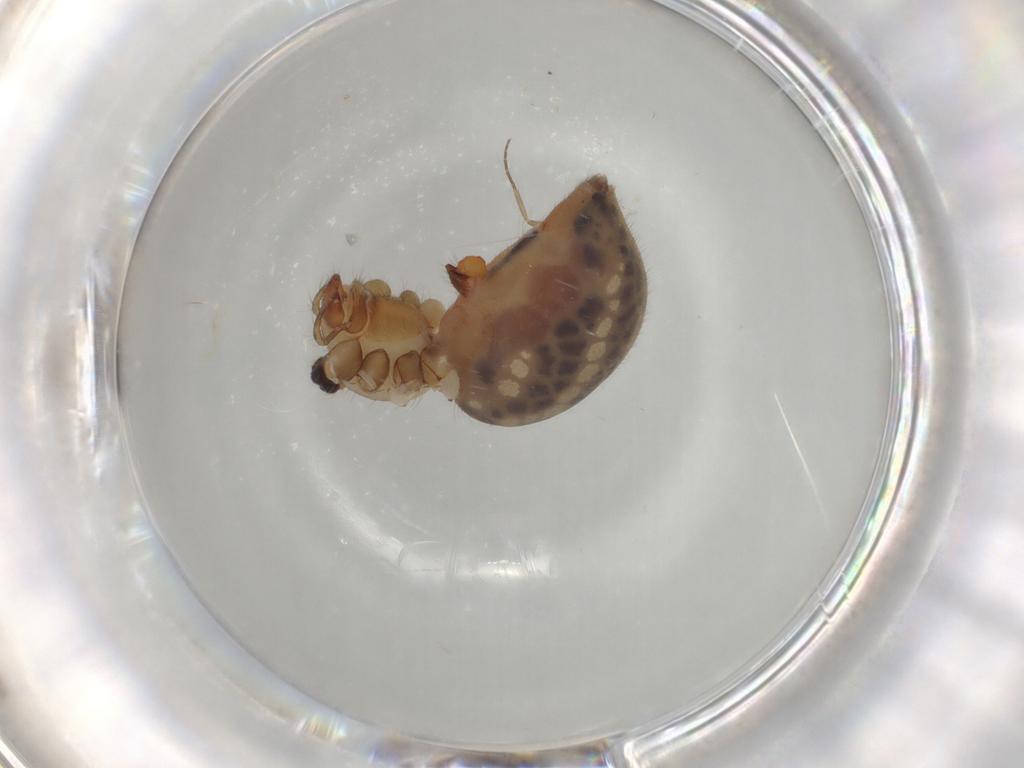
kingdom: Animalia
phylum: Arthropoda
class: Arachnida
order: Araneae
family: Pholcidae
